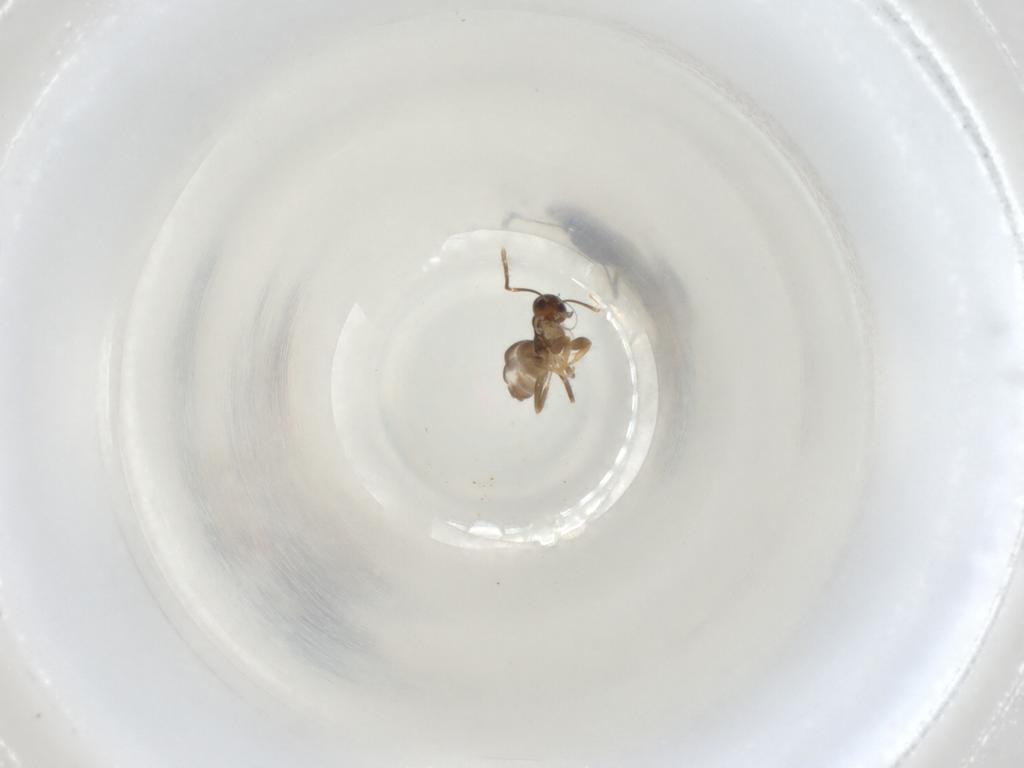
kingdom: Animalia
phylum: Arthropoda
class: Insecta
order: Hymenoptera
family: Formicidae
